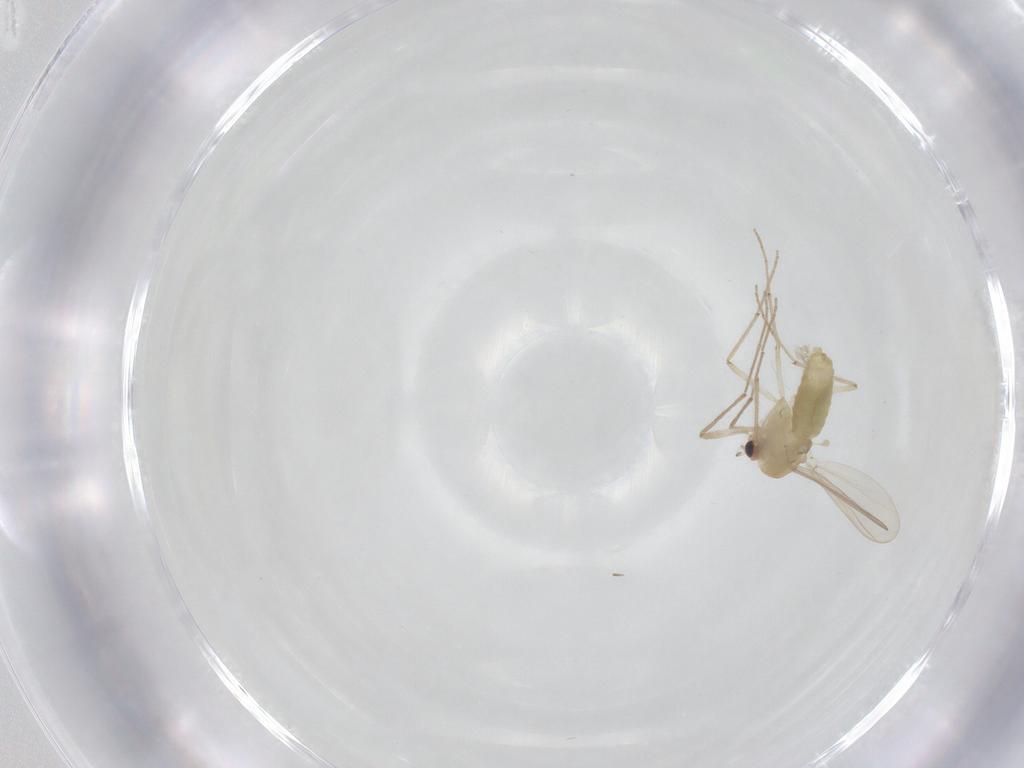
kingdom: Animalia
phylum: Arthropoda
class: Insecta
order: Diptera
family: Chironomidae
